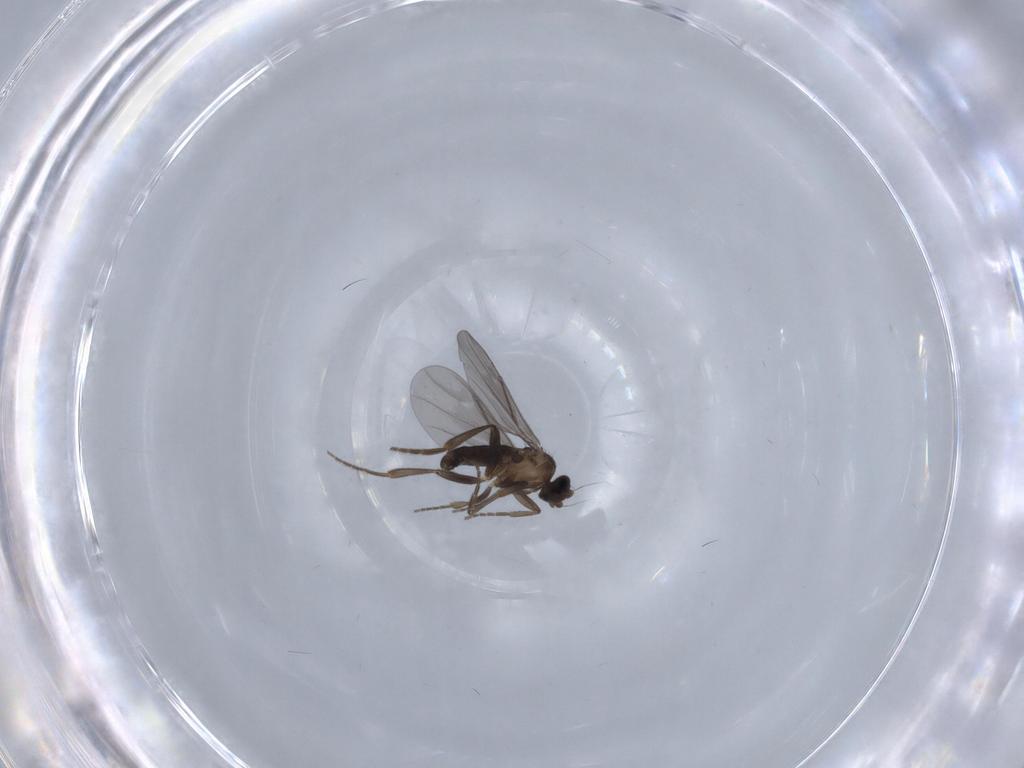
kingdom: Animalia
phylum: Arthropoda
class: Insecta
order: Diptera
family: Phoridae
